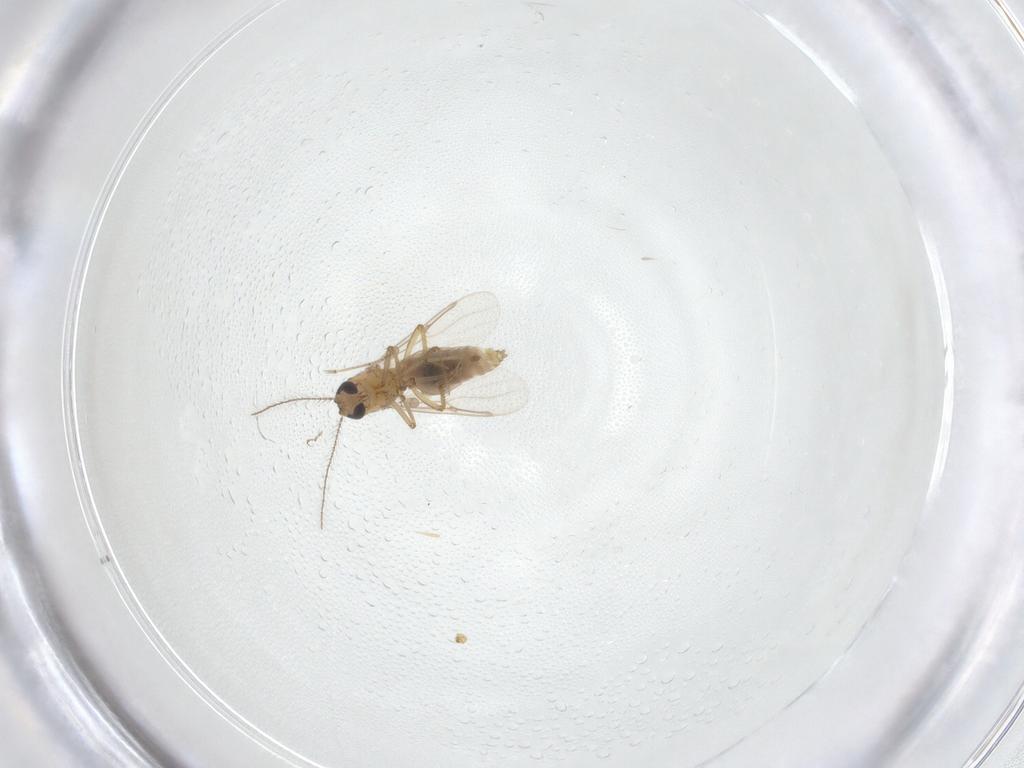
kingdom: Animalia
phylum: Arthropoda
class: Insecta
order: Diptera
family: Ceratopogonidae
